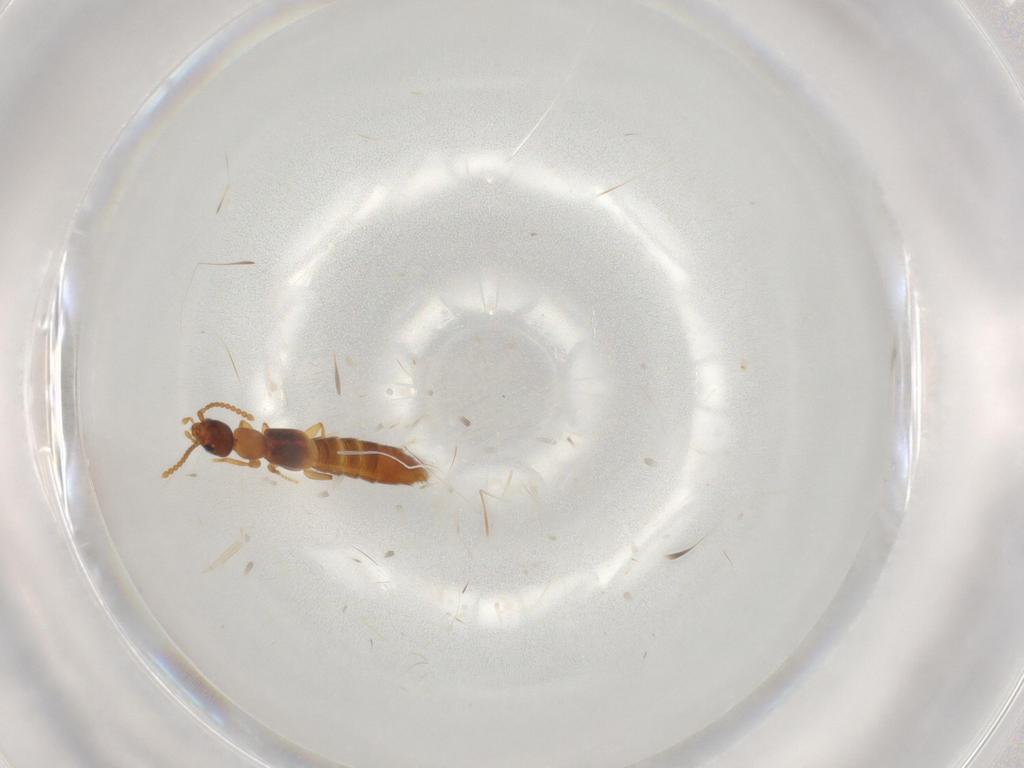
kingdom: Animalia
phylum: Arthropoda
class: Insecta
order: Coleoptera
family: Staphylinidae
